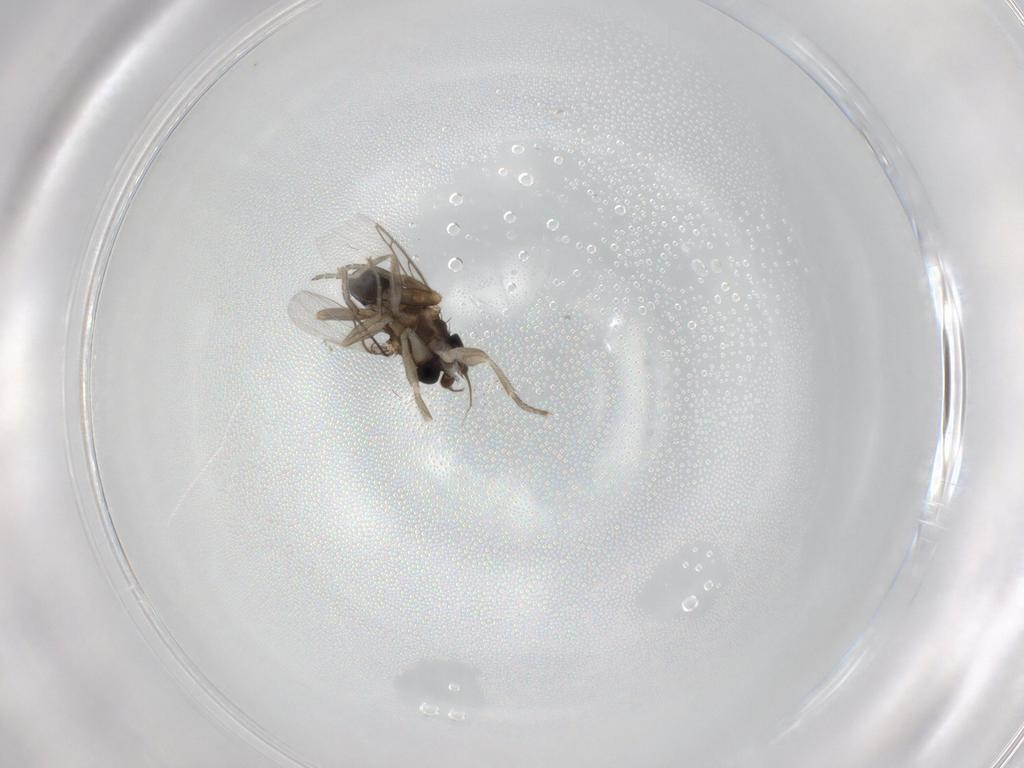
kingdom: Animalia
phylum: Arthropoda
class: Insecta
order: Diptera
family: Phoridae
